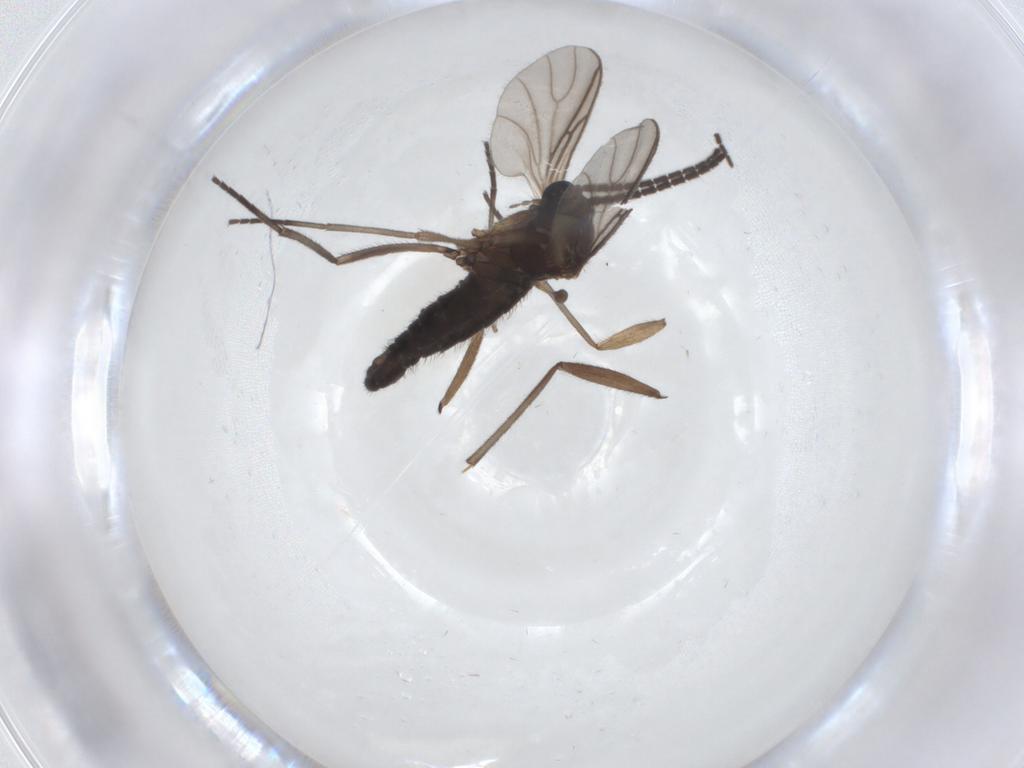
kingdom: Animalia
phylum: Arthropoda
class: Insecta
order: Diptera
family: Sciaridae
